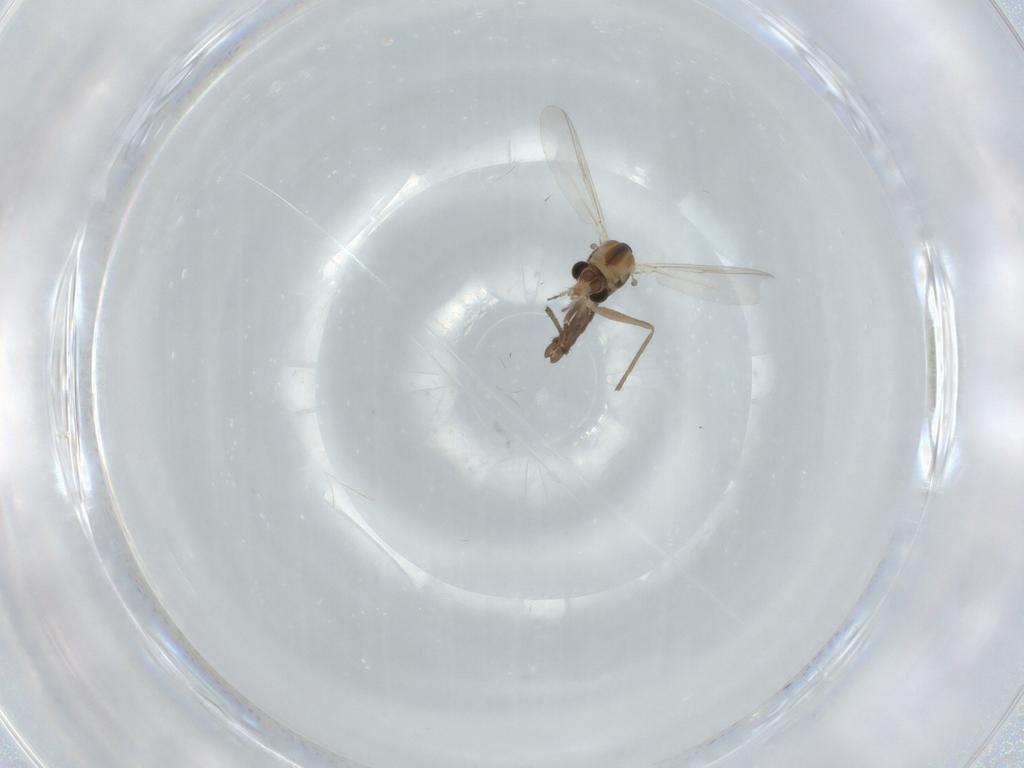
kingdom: Animalia
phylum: Arthropoda
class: Insecta
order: Diptera
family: Chironomidae
